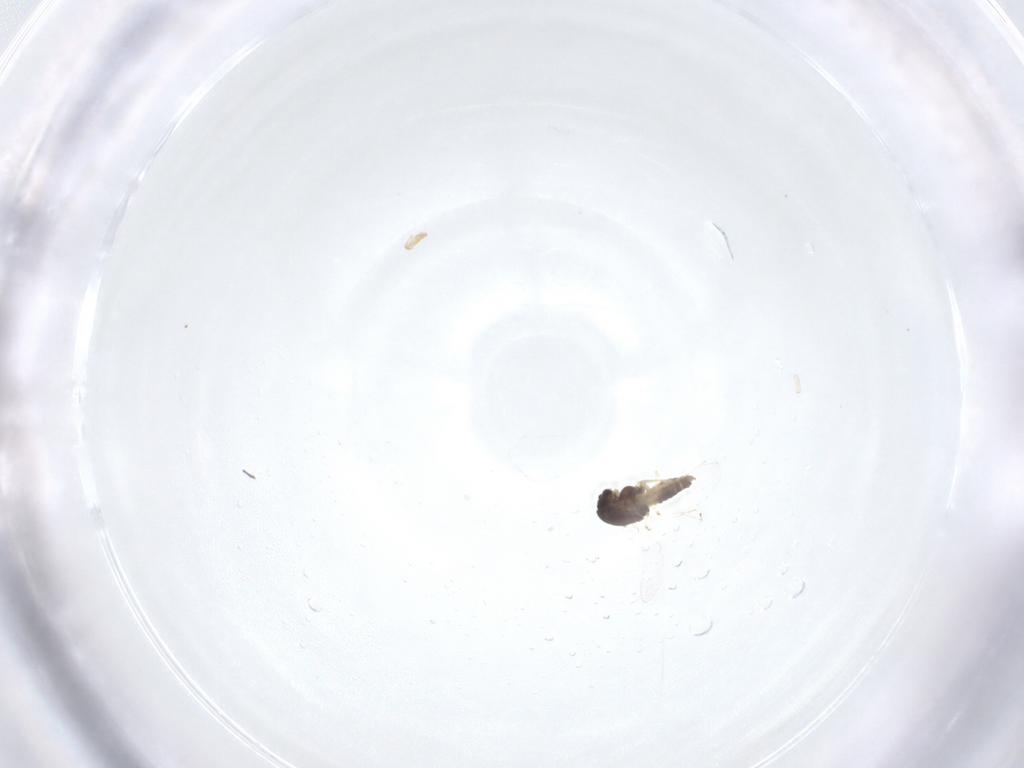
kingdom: Animalia
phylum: Arthropoda
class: Insecta
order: Diptera
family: Chironomidae
